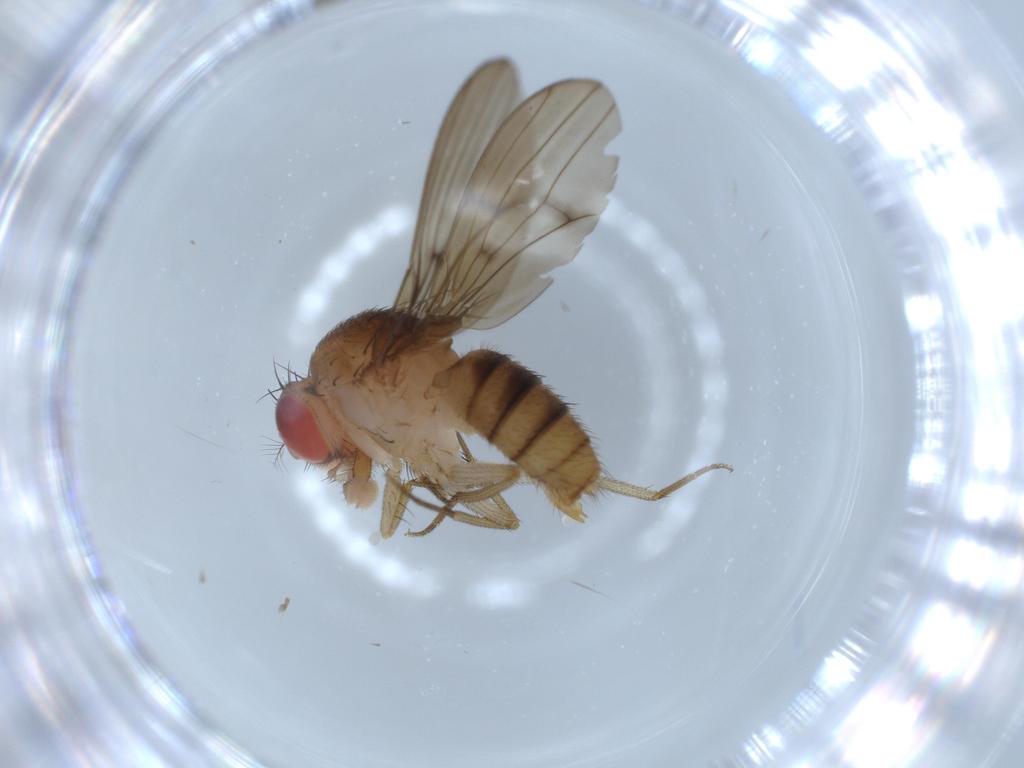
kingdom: Animalia
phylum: Arthropoda
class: Insecta
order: Diptera
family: Drosophilidae
